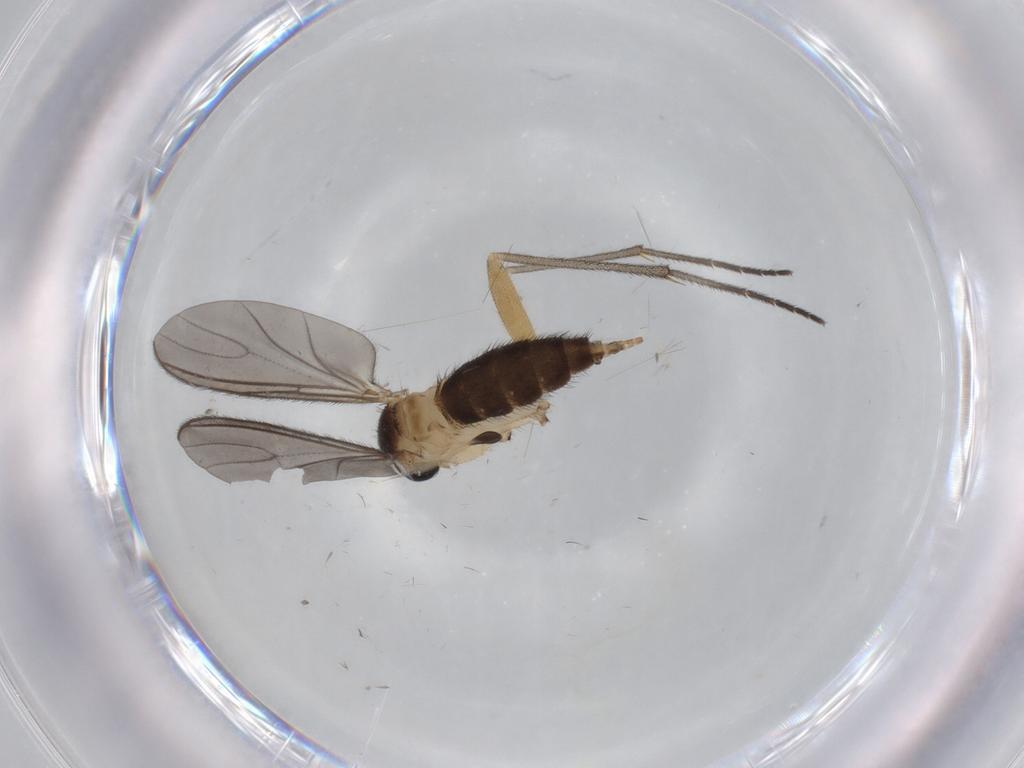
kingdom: Animalia
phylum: Arthropoda
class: Insecta
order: Diptera
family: Sciaridae
